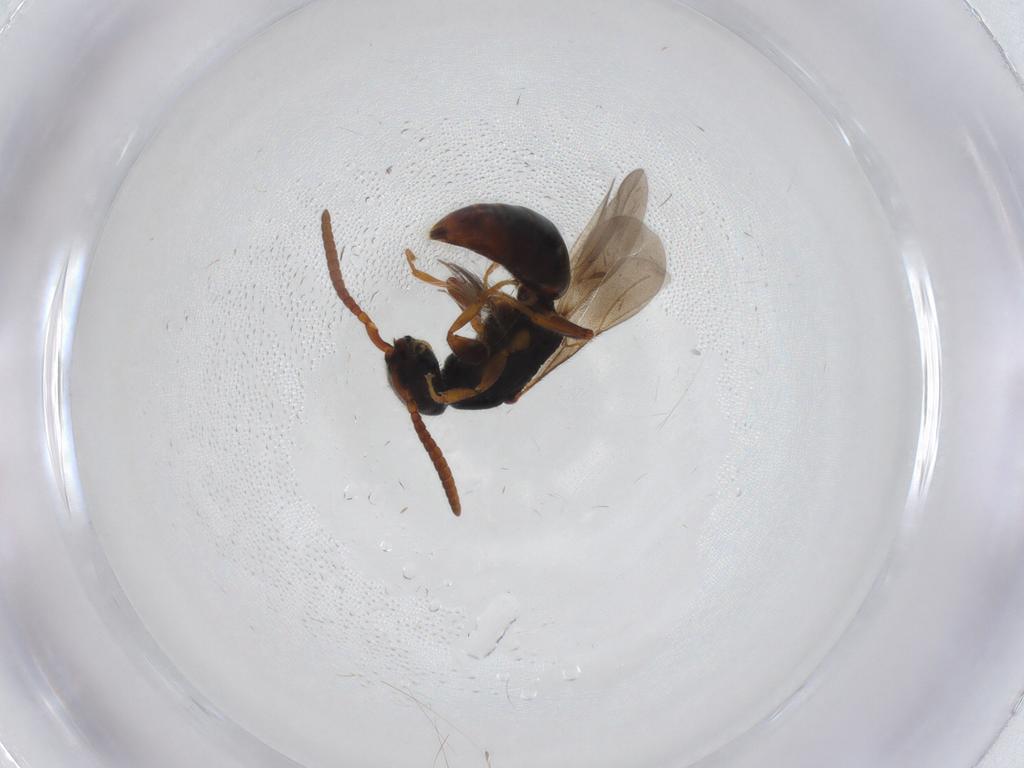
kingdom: Animalia
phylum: Arthropoda
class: Insecta
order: Hymenoptera
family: Bethylidae
